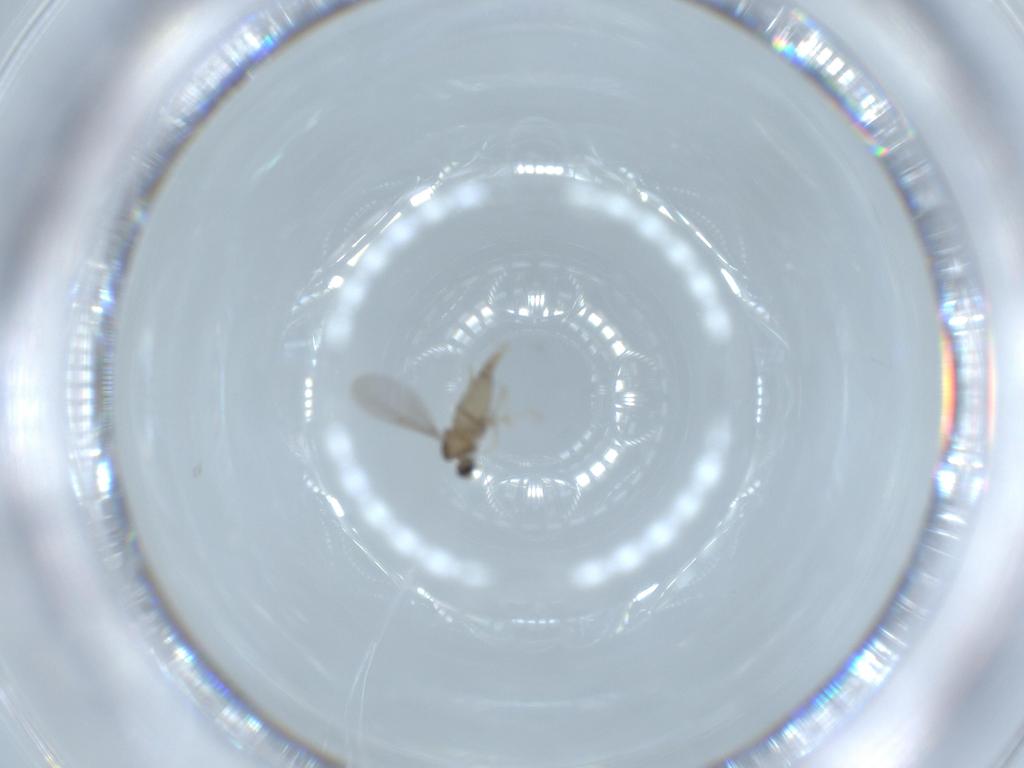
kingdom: Animalia
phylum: Arthropoda
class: Insecta
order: Diptera
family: Cecidomyiidae
